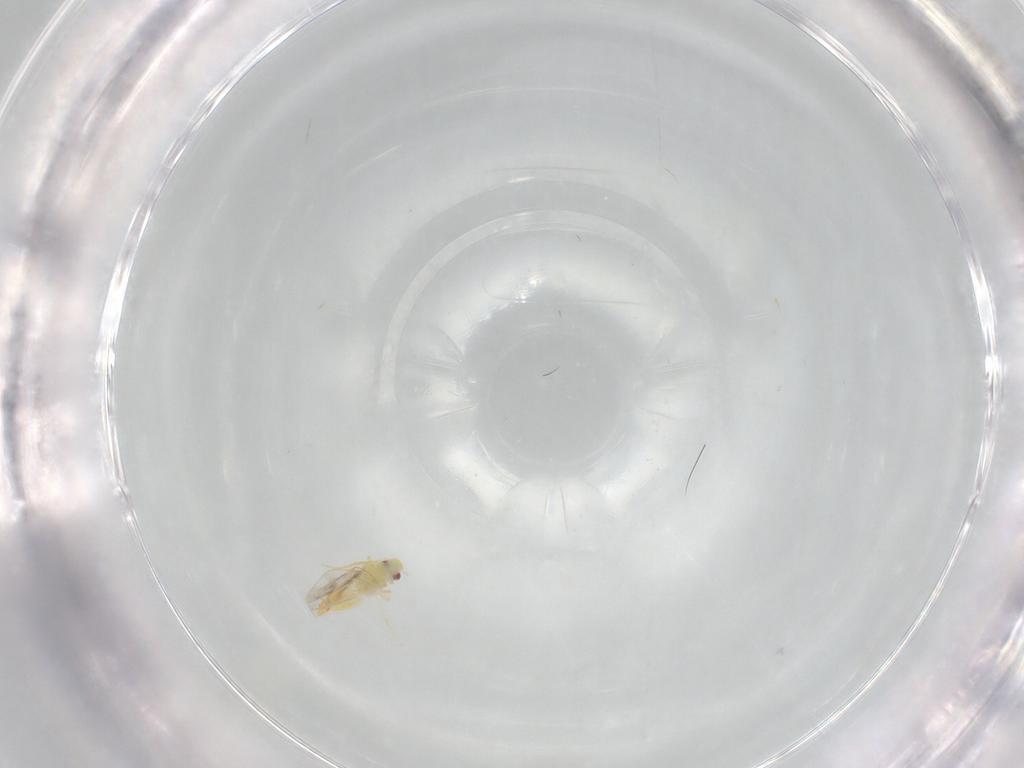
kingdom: Animalia
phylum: Arthropoda
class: Insecta
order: Hemiptera
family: Aleyrodidae
